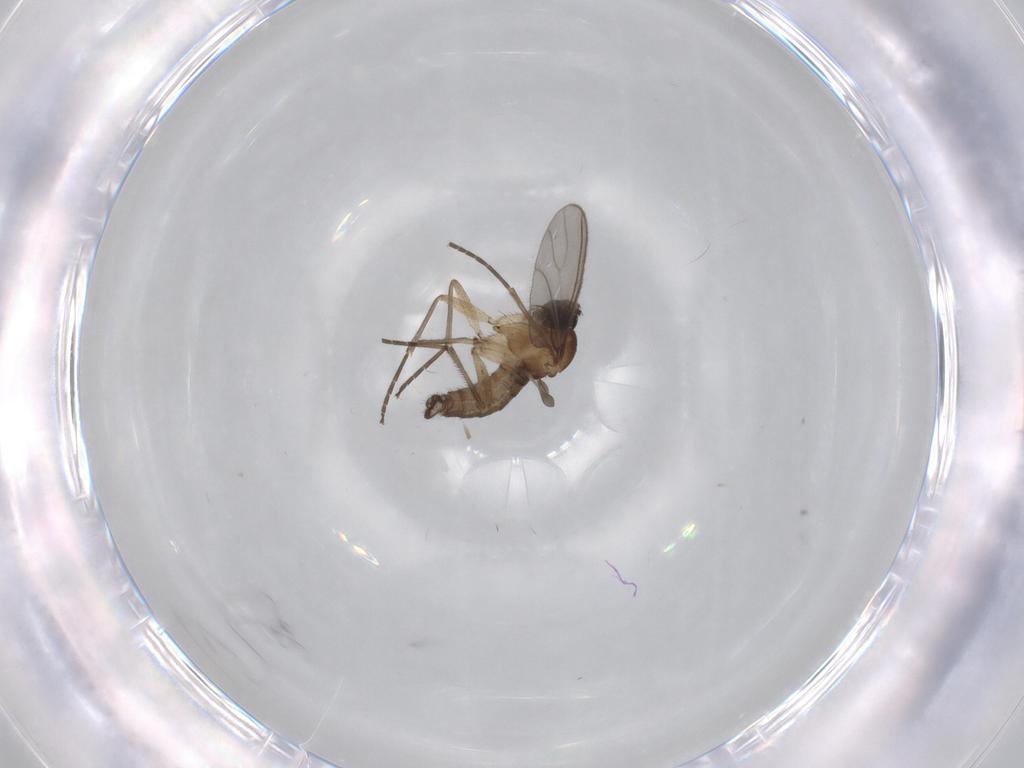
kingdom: Animalia
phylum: Arthropoda
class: Insecta
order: Diptera
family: Sciaridae
